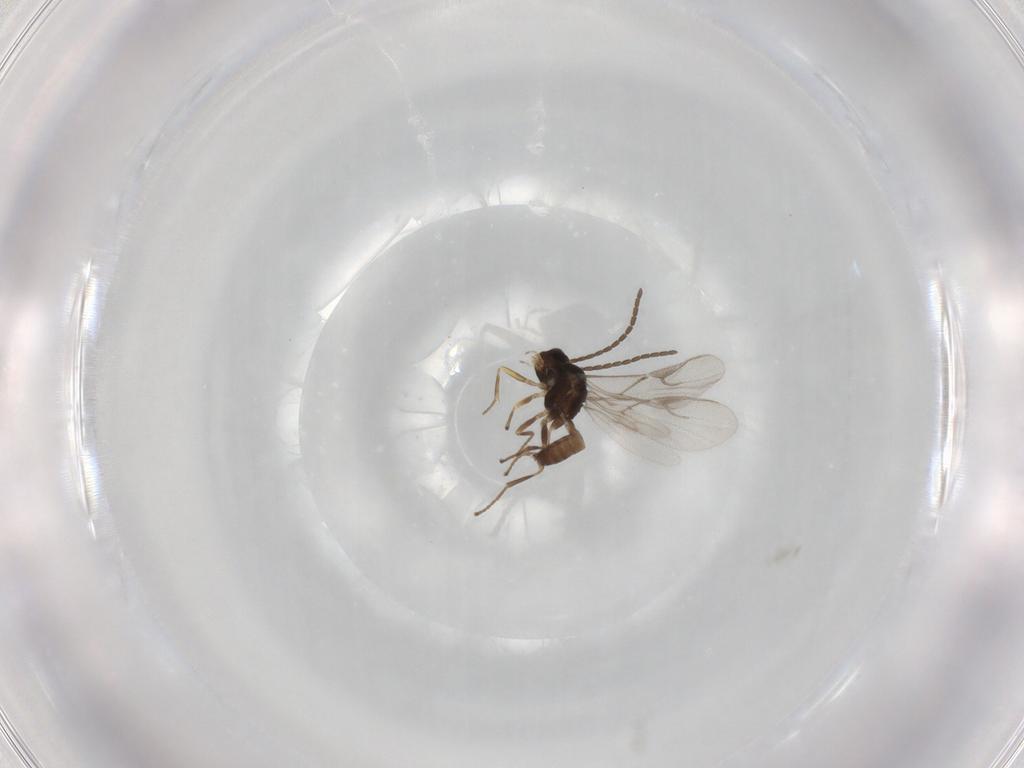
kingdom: Animalia
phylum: Arthropoda
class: Insecta
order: Hymenoptera
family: Braconidae
